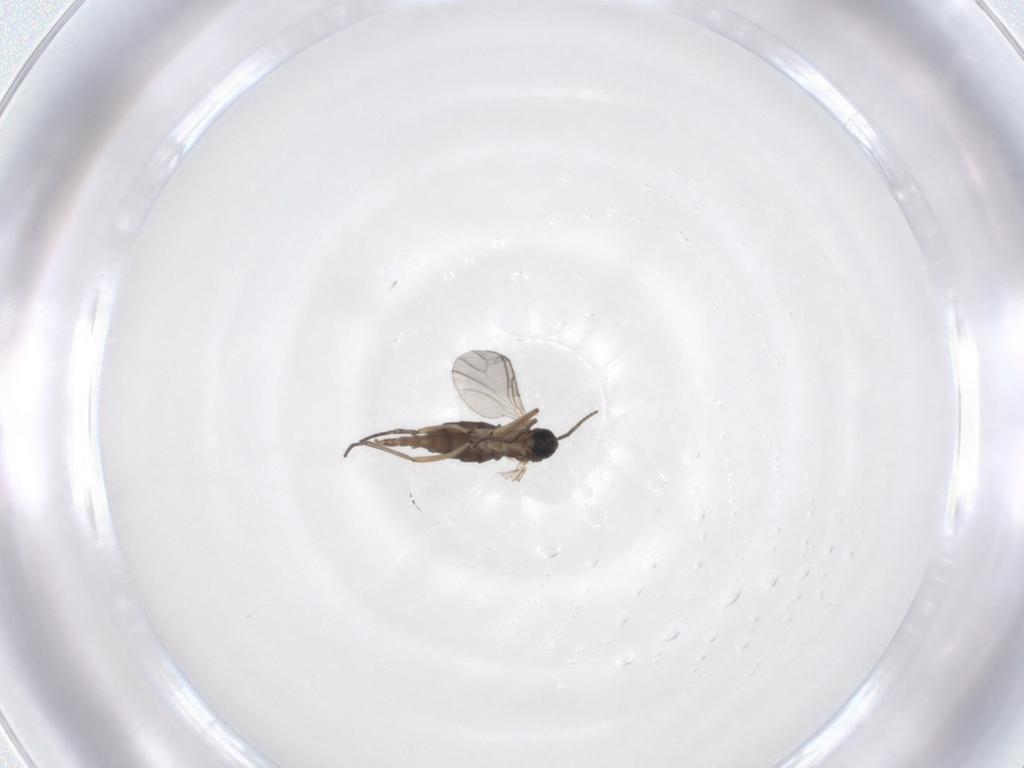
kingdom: Animalia
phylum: Arthropoda
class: Insecta
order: Diptera
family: Sciaridae
